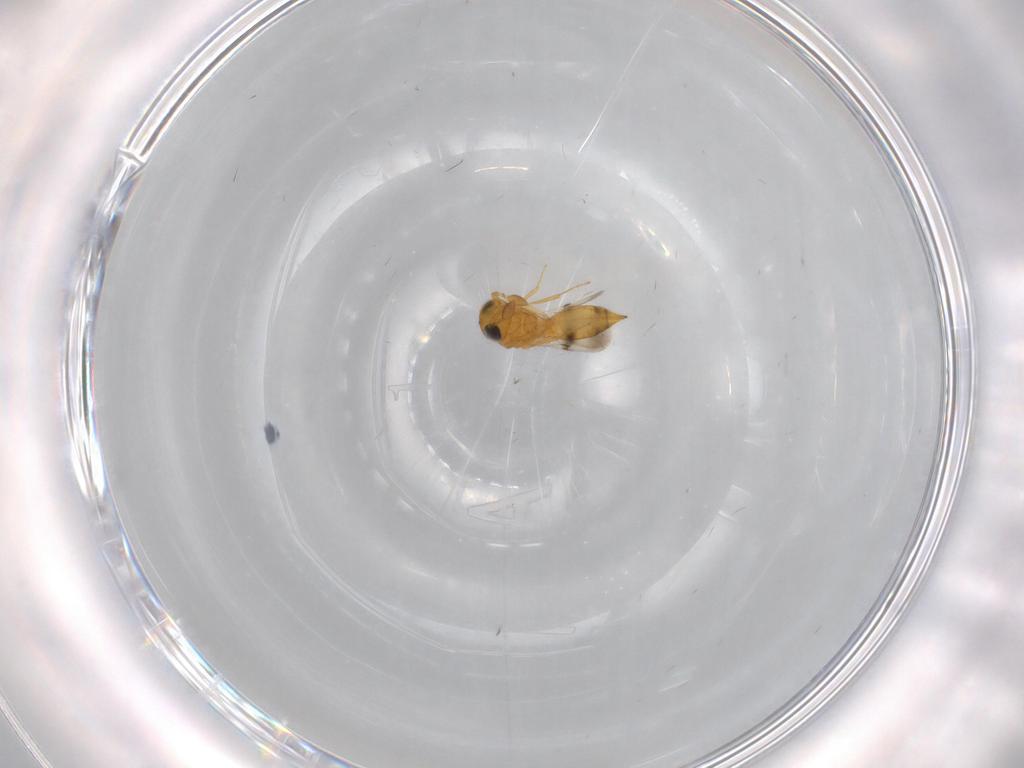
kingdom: Animalia
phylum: Arthropoda
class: Insecta
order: Hymenoptera
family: Scelionidae
